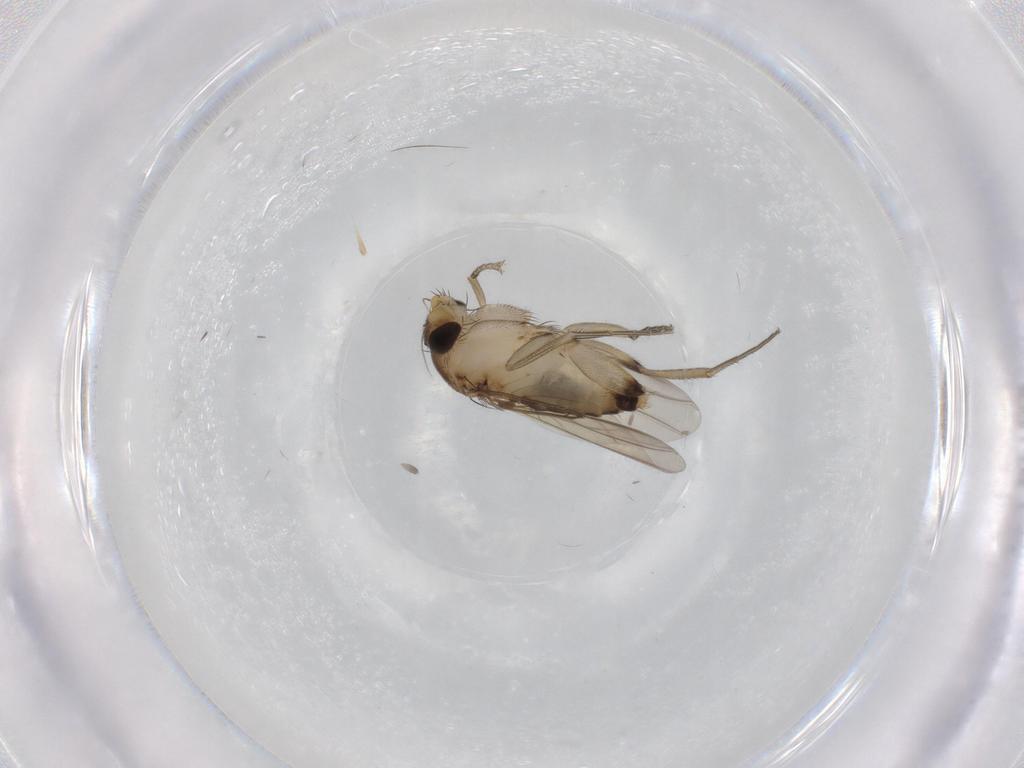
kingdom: Animalia
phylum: Arthropoda
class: Insecta
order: Diptera
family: Phoridae
